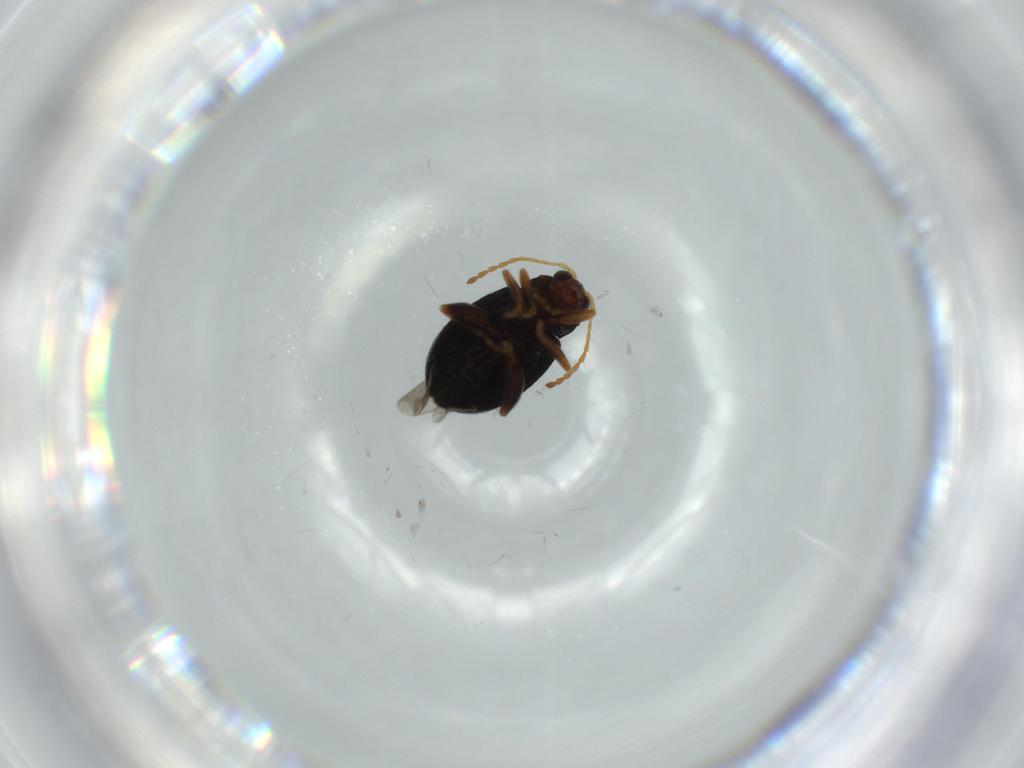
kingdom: Animalia
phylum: Arthropoda
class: Insecta
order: Coleoptera
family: Chrysomelidae
